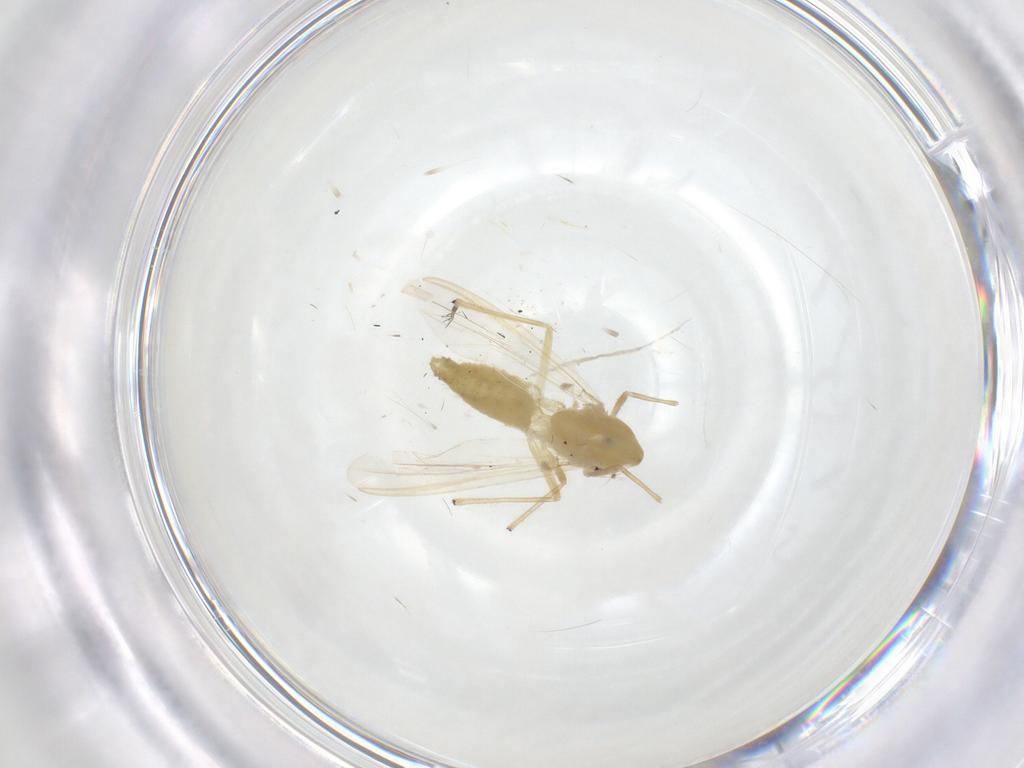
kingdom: Animalia
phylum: Arthropoda
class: Insecta
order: Diptera
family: Chironomidae
